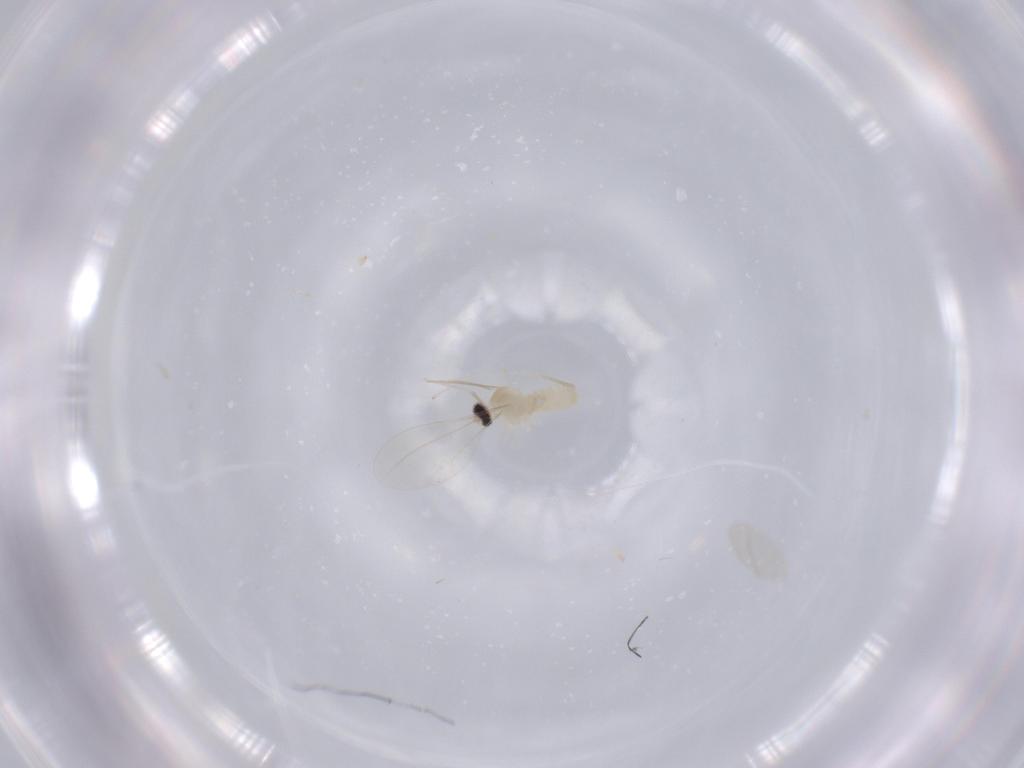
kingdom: Animalia
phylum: Arthropoda
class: Insecta
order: Diptera
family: Cecidomyiidae
